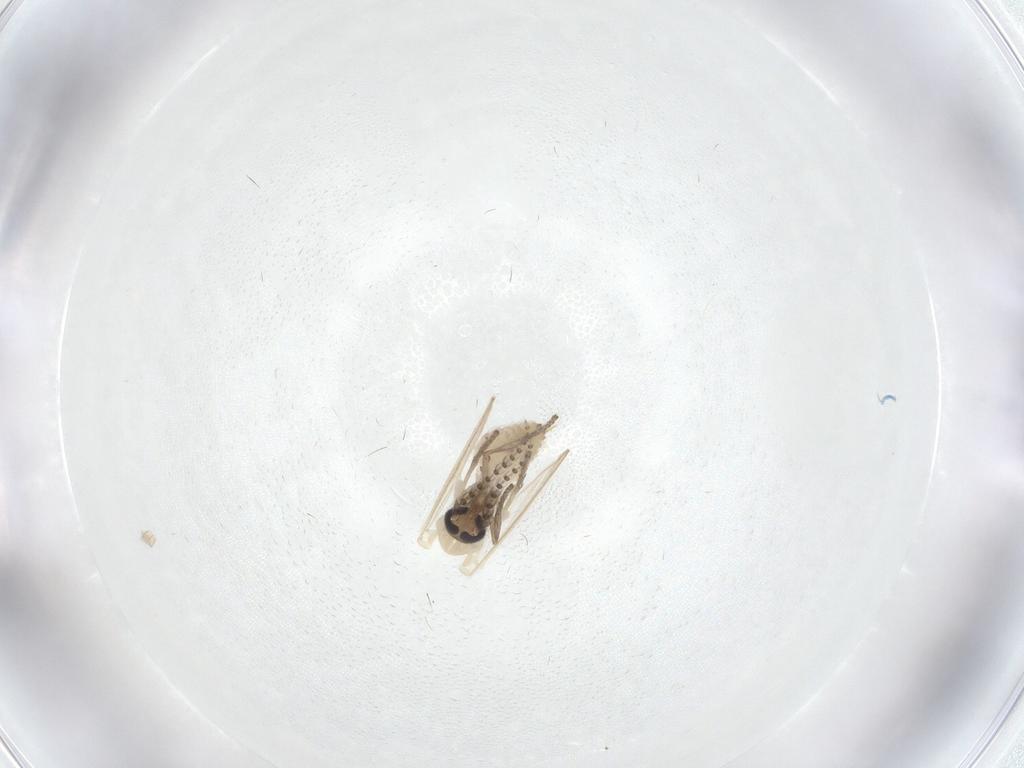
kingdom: Animalia
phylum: Arthropoda
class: Insecta
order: Diptera
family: Psychodidae
